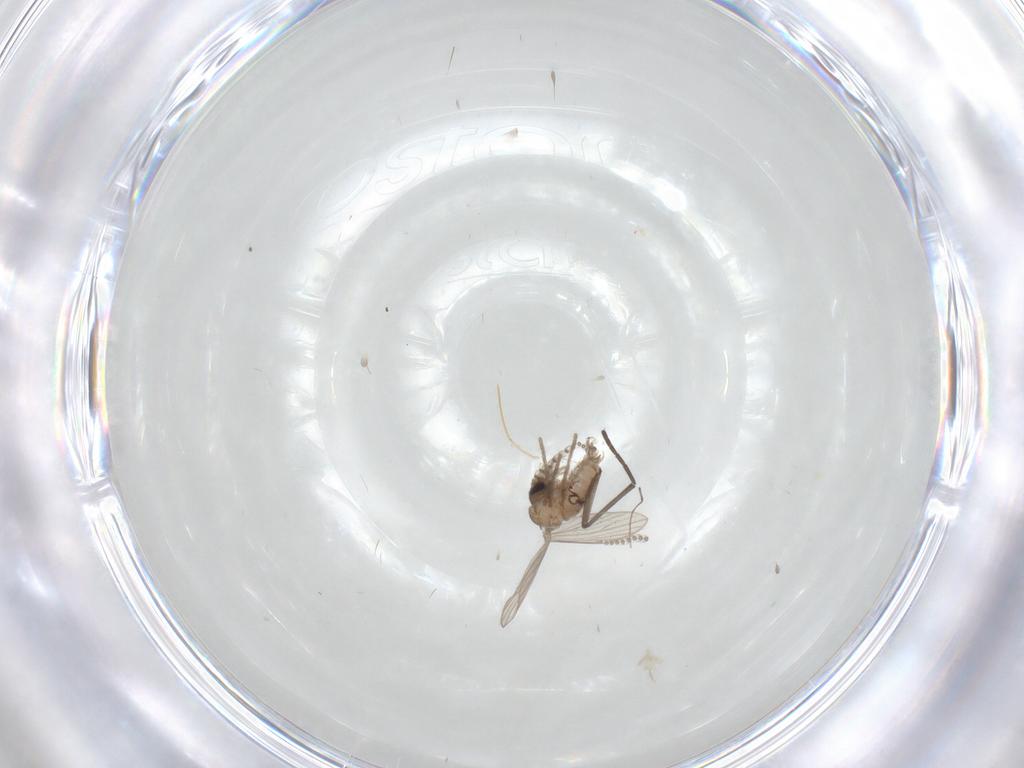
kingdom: Animalia
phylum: Arthropoda
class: Insecta
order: Diptera
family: Psychodidae
